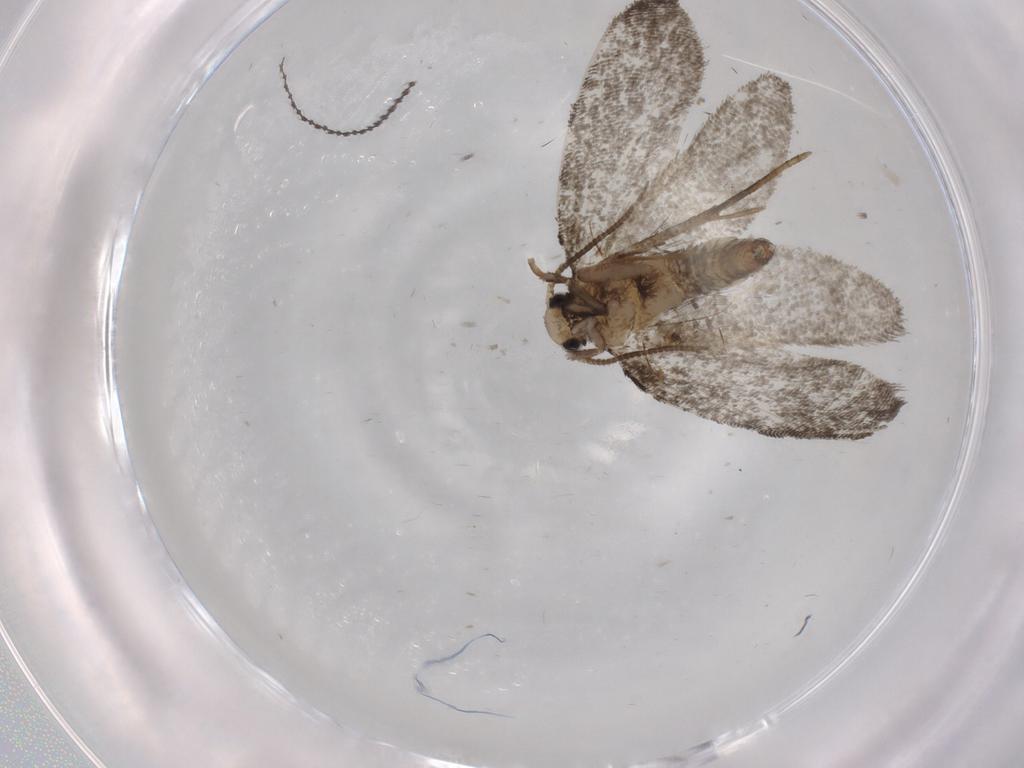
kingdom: Animalia
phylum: Arthropoda
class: Insecta
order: Lepidoptera
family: Psychidae
